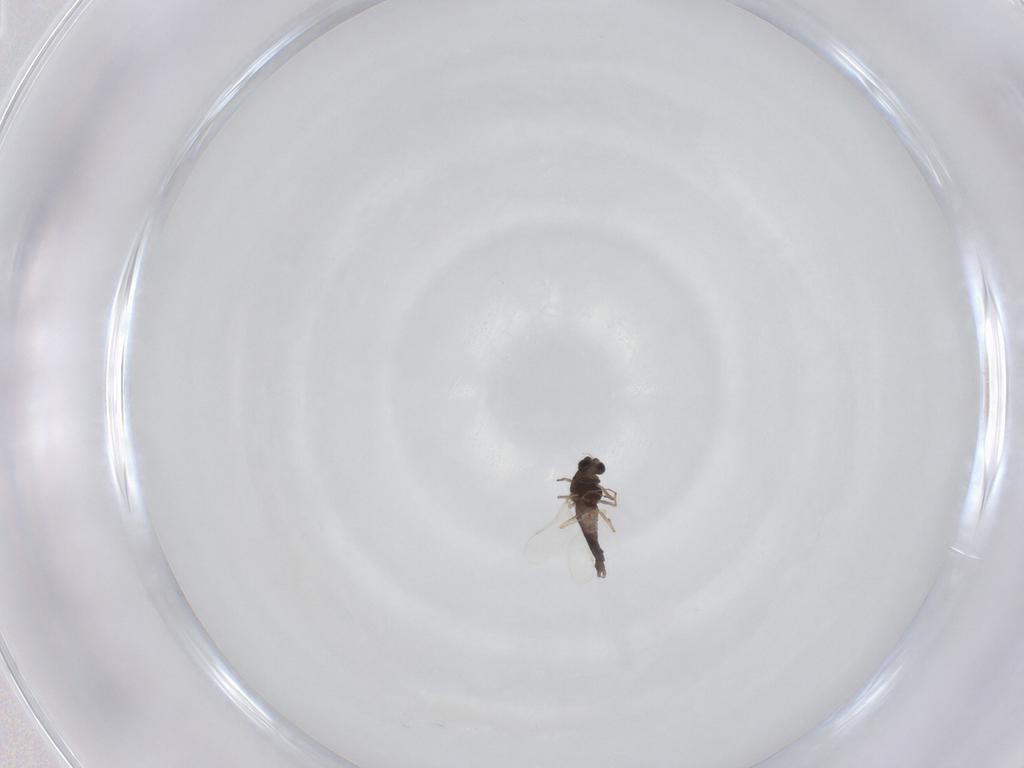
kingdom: Animalia
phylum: Arthropoda
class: Insecta
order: Diptera
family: Chironomidae
